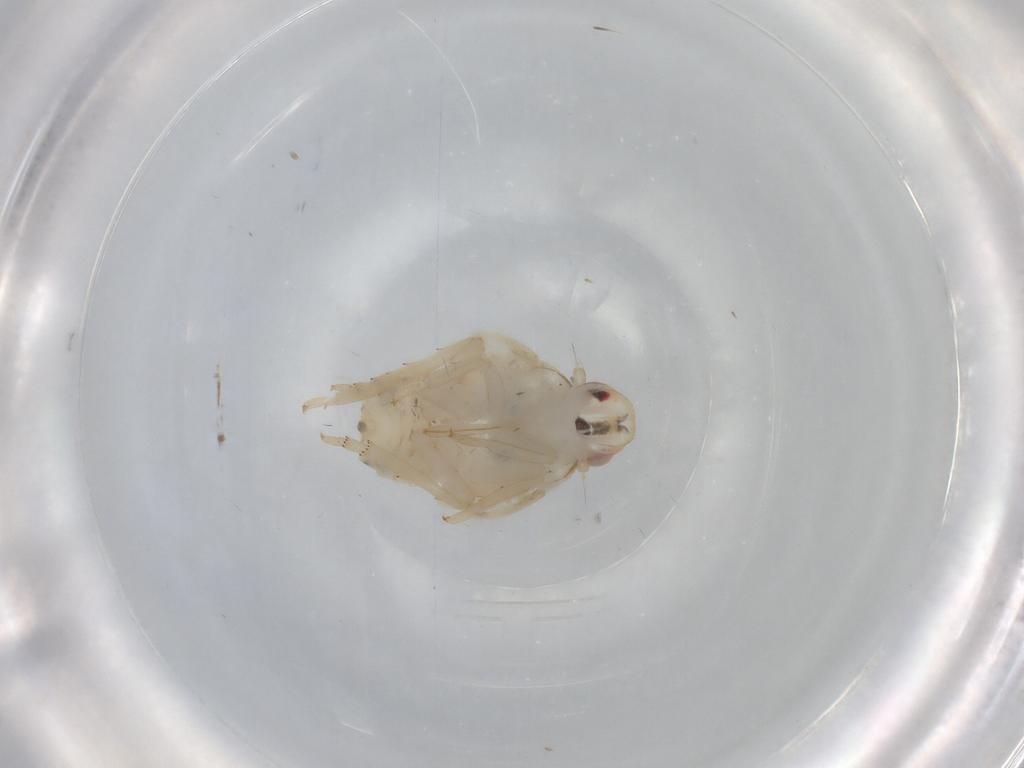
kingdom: Animalia
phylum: Arthropoda
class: Insecta
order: Hemiptera
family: Flatidae
